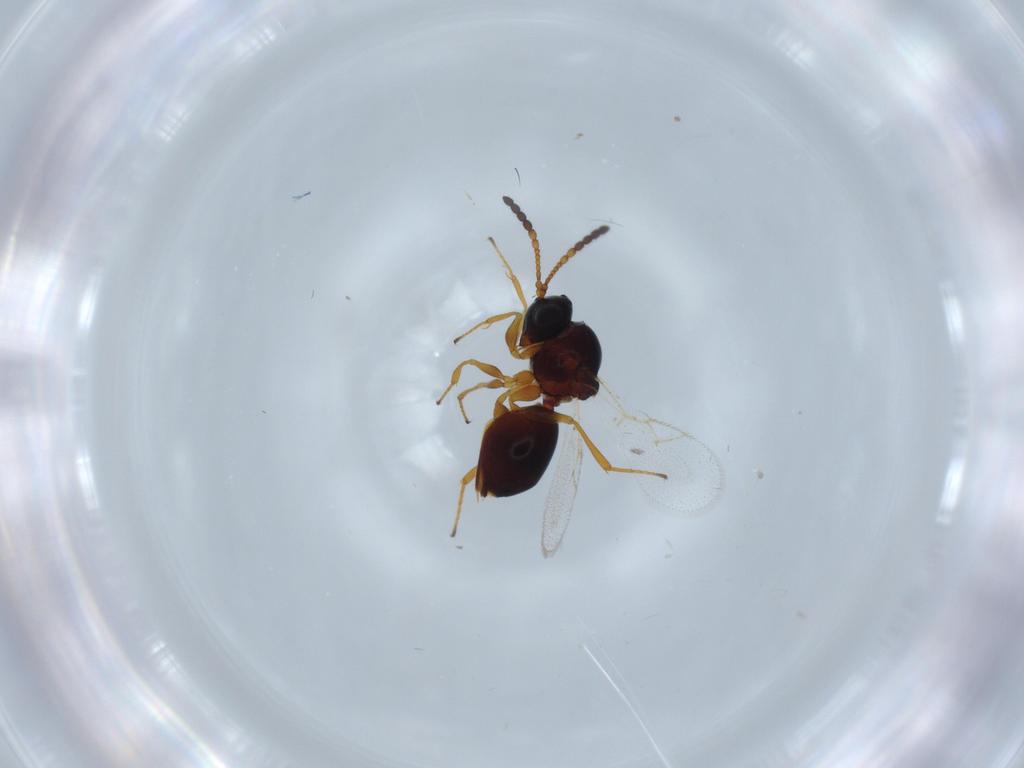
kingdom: Animalia
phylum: Arthropoda
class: Insecta
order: Hymenoptera
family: Figitidae
